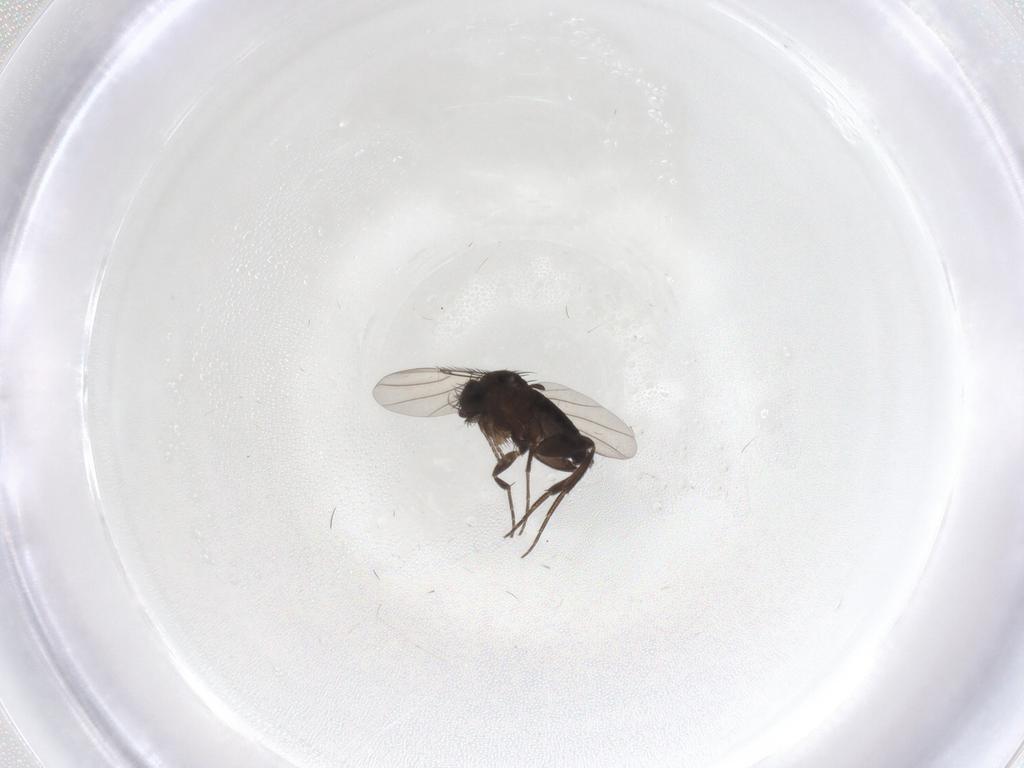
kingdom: Animalia
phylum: Arthropoda
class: Insecta
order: Diptera
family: Phoridae
